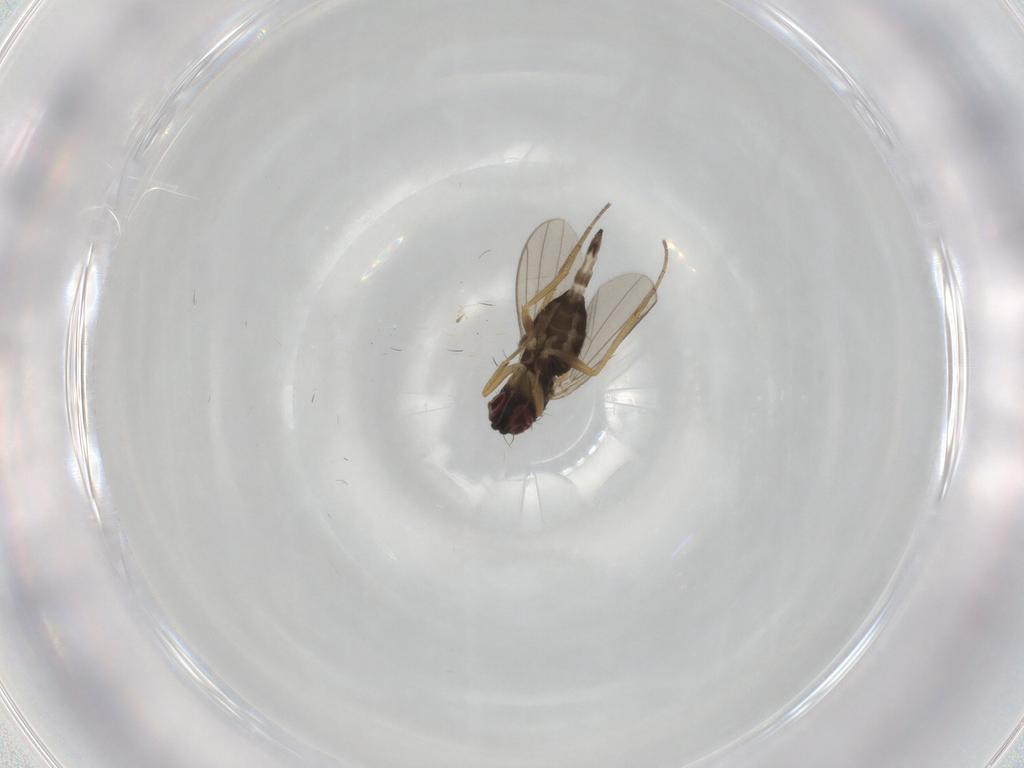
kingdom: Animalia
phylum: Arthropoda
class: Insecta
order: Diptera
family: Dolichopodidae
